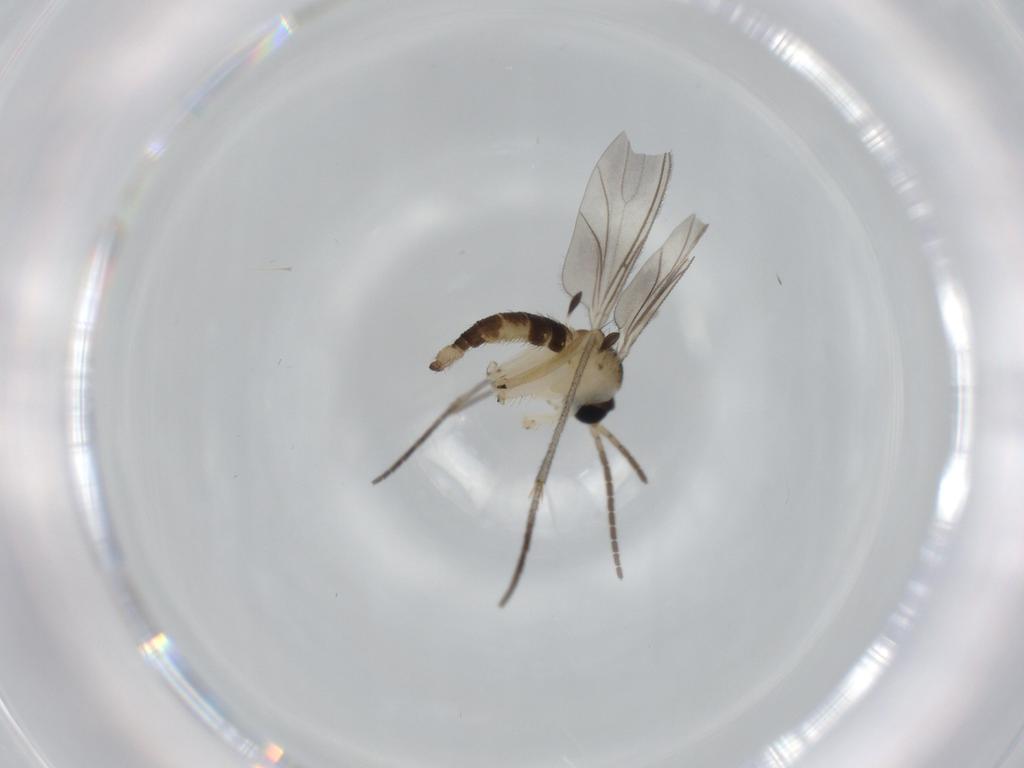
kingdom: Animalia
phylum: Arthropoda
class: Insecta
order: Diptera
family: Sciaridae
